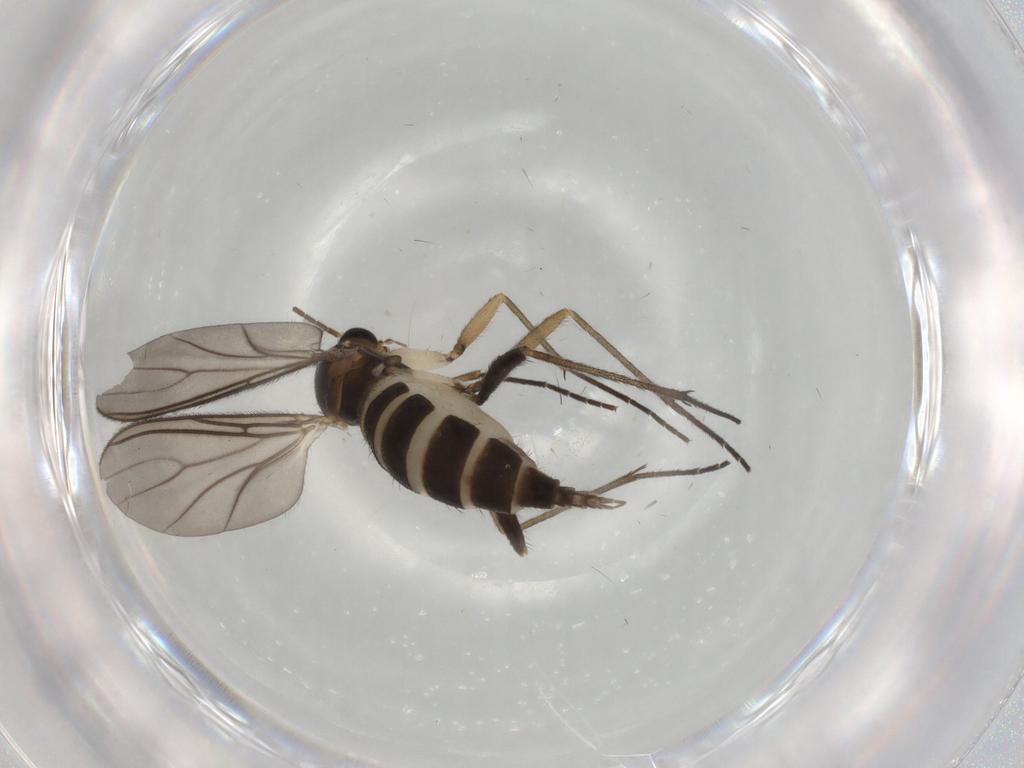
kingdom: Animalia
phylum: Arthropoda
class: Insecta
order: Diptera
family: Sciaridae
